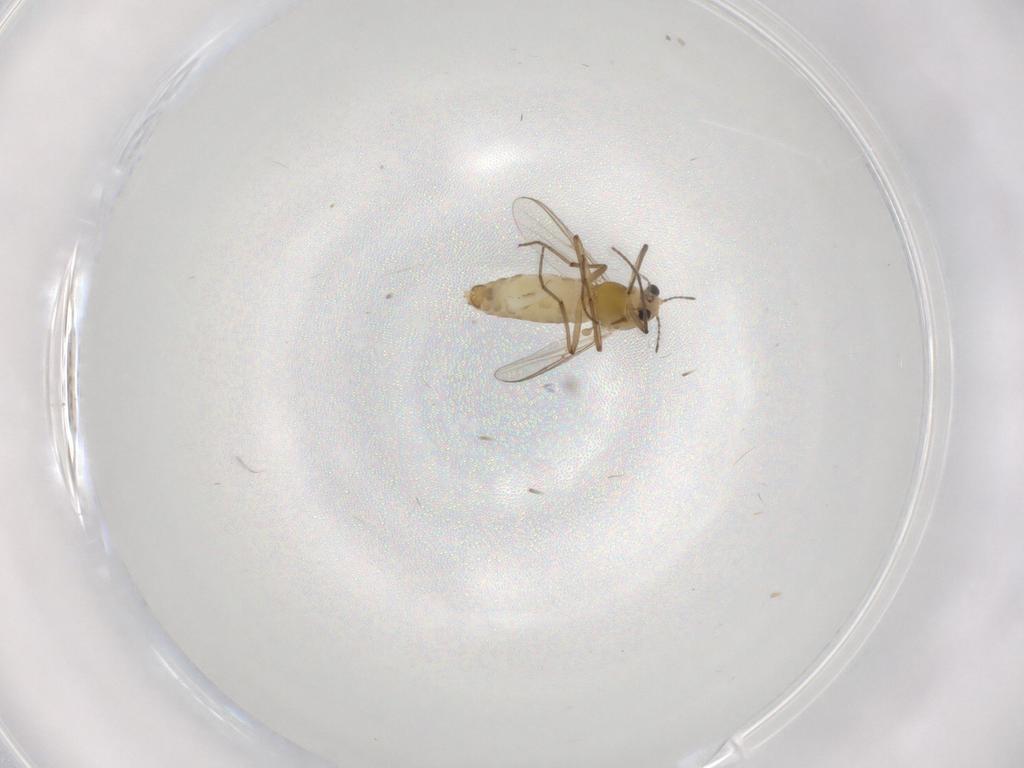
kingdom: Animalia
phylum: Arthropoda
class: Insecta
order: Diptera
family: Chironomidae
